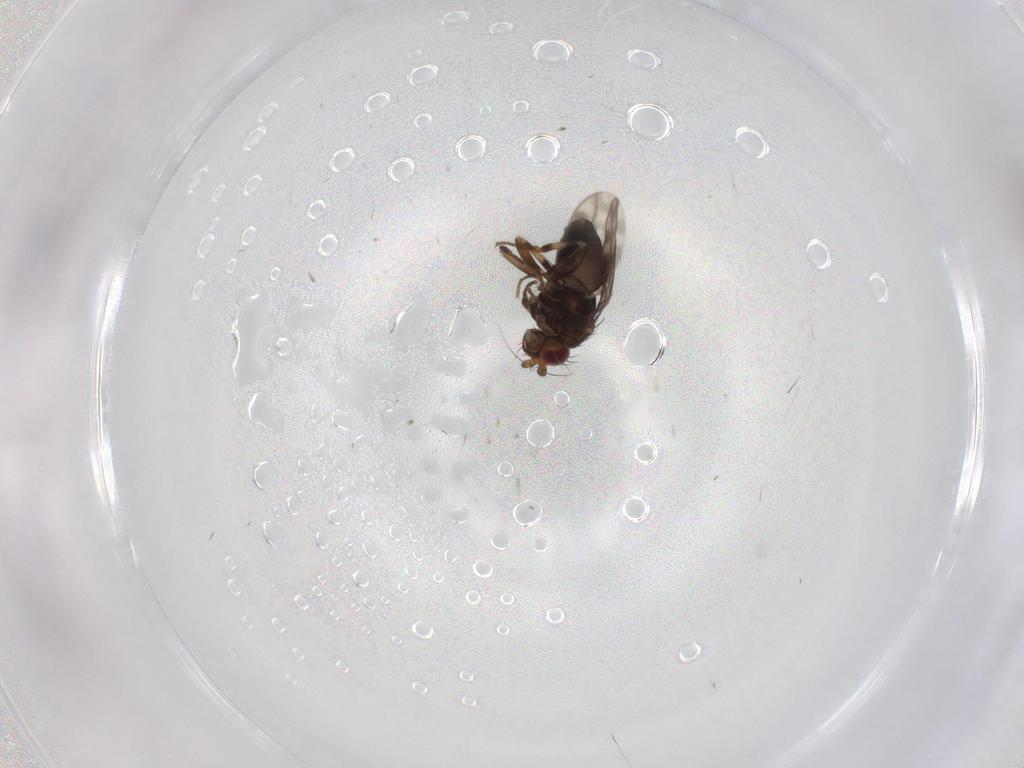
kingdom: Animalia
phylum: Arthropoda
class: Insecta
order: Diptera
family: Sphaeroceridae
